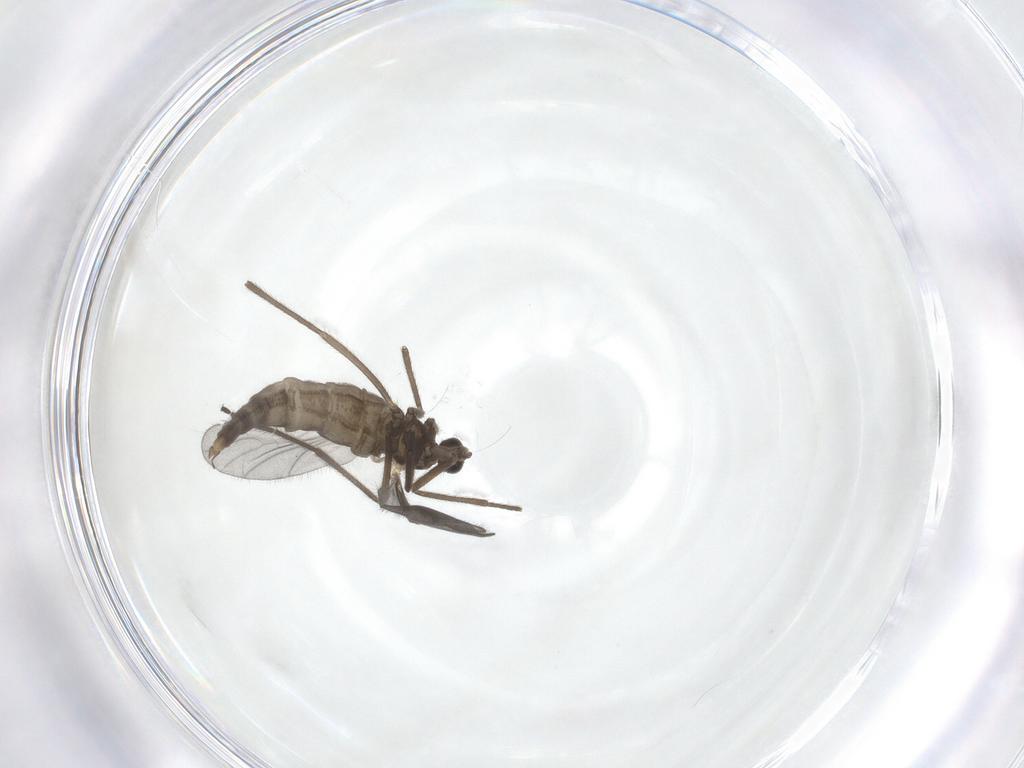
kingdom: Animalia
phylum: Arthropoda
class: Insecta
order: Diptera
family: Cecidomyiidae
